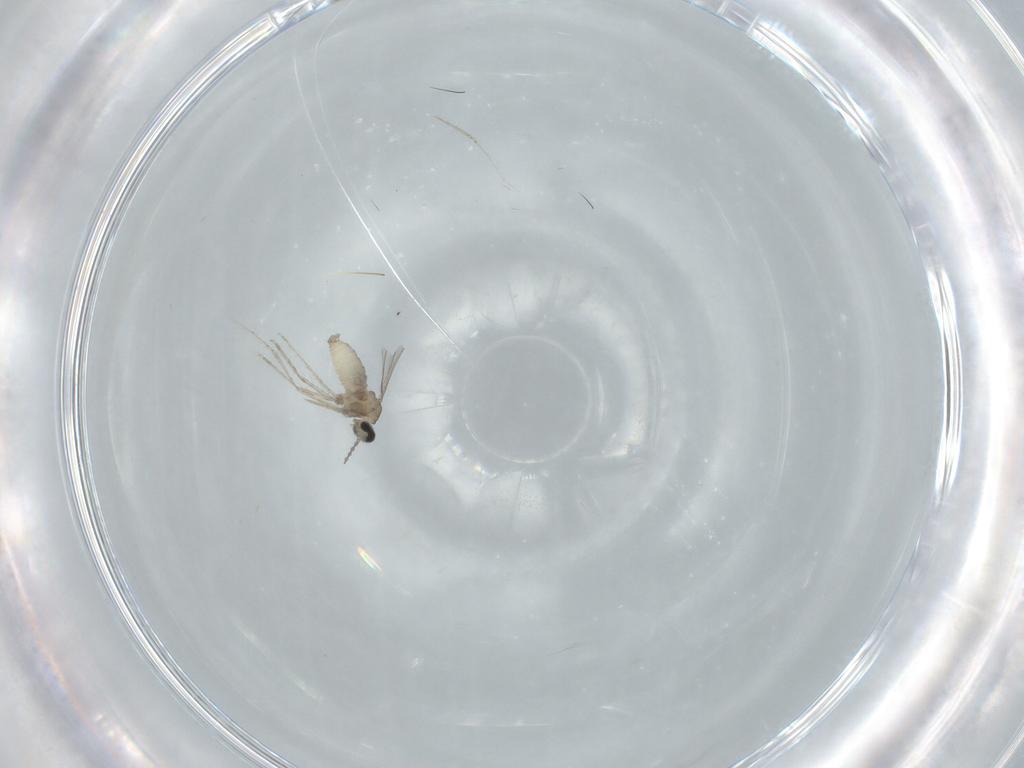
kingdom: Animalia
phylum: Arthropoda
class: Insecta
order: Diptera
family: Cecidomyiidae
